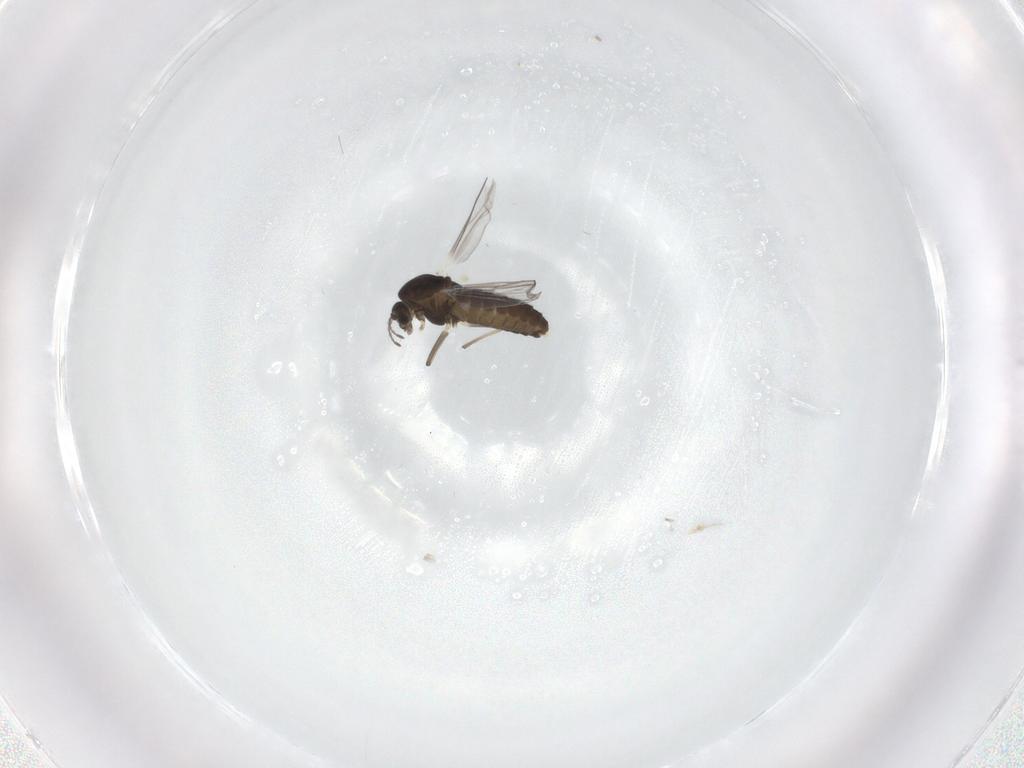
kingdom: Animalia
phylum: Arthropoda
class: Insecta
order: Diptera
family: Chironomidae
